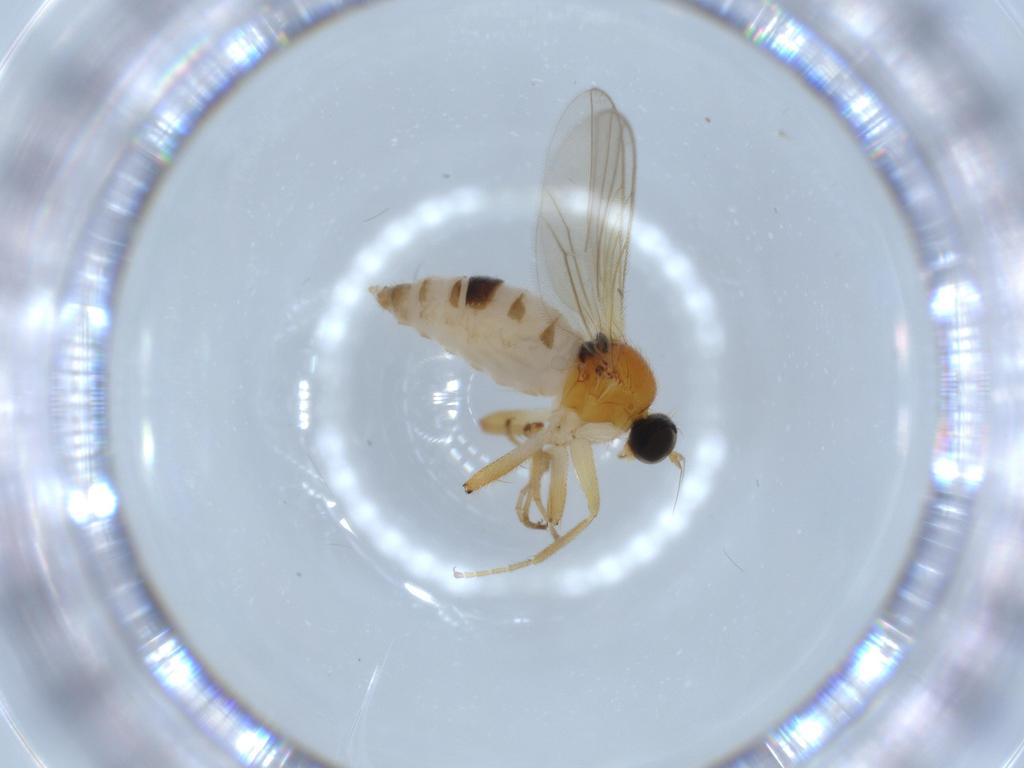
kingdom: Animalia
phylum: Arthropoda
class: Insecta
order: Diptera
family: Hybotidae
